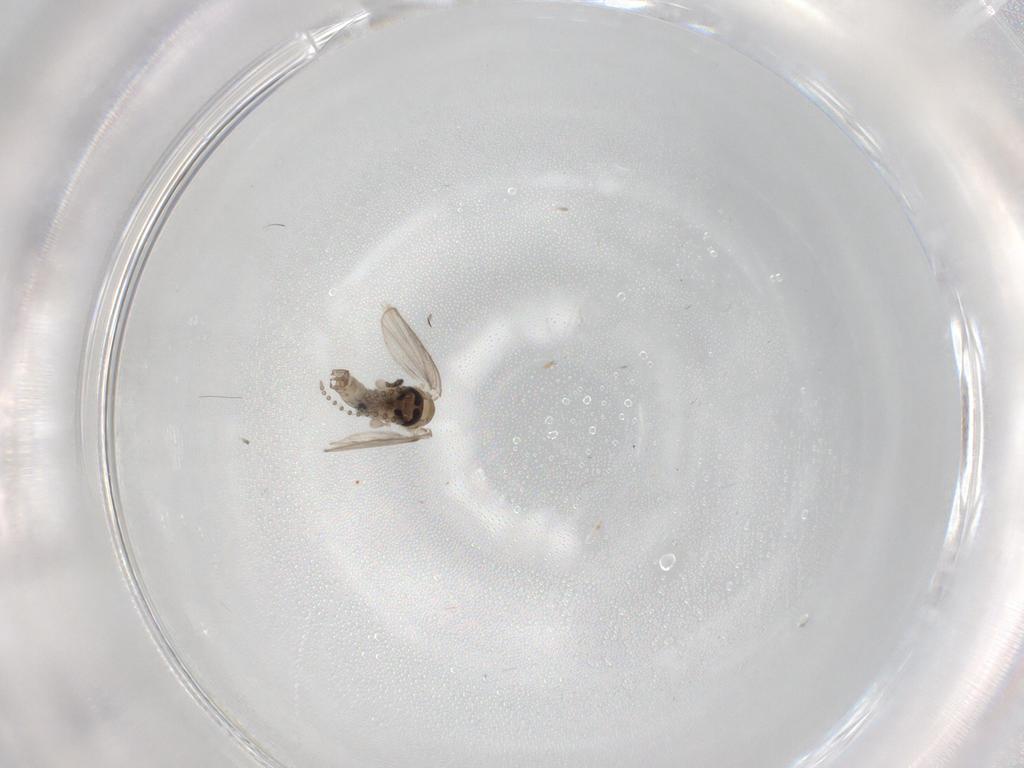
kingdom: Animalia
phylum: Arthropoda
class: Insecta
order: Diptera
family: Psychodidae
